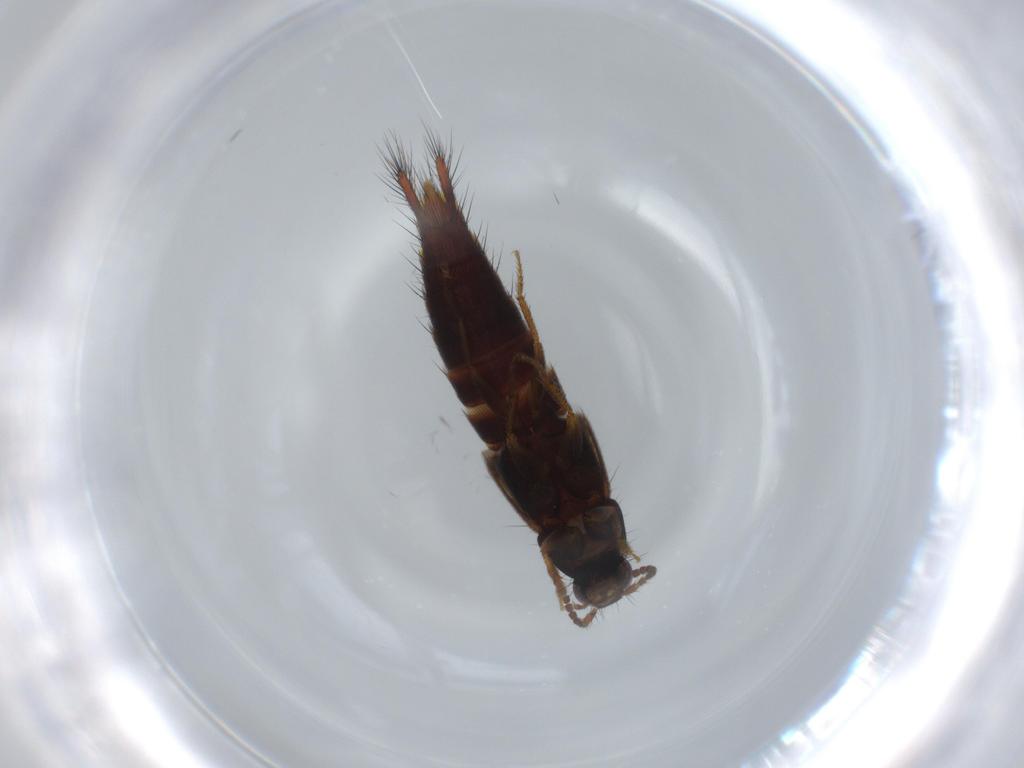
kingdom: Animalia
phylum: Arthropoda
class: Insecta
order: Coleoptera
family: Staphylinidae
